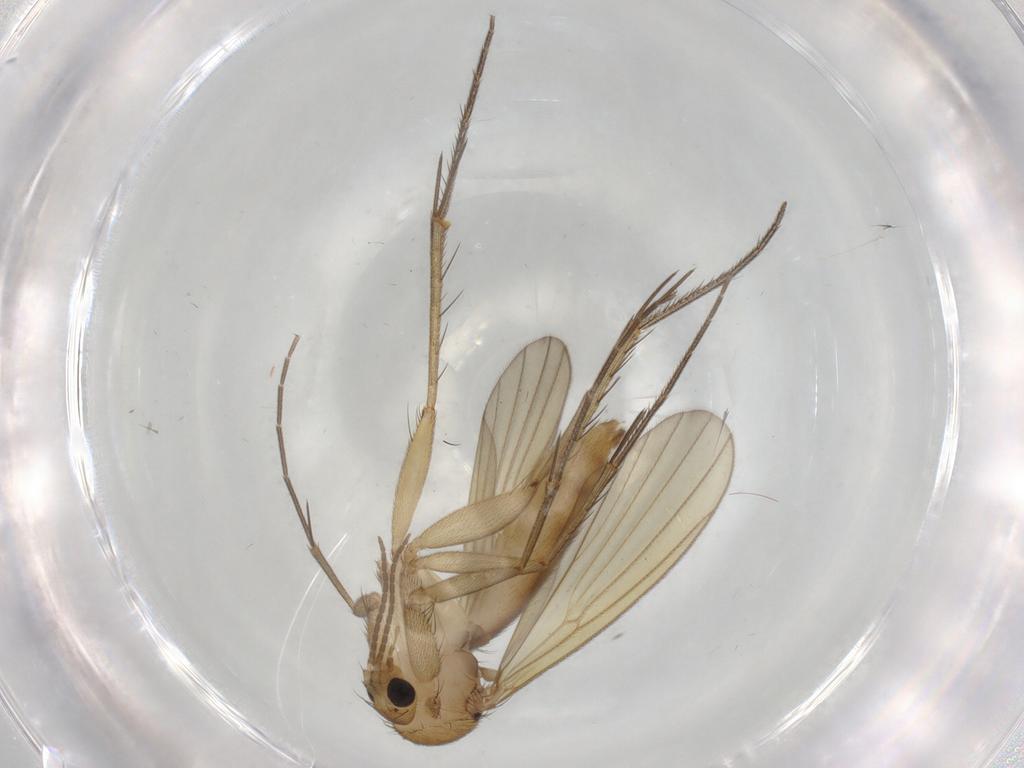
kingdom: Animalia
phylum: Arthropoda
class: Insecta
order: Diptera
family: Mycetophilidae
